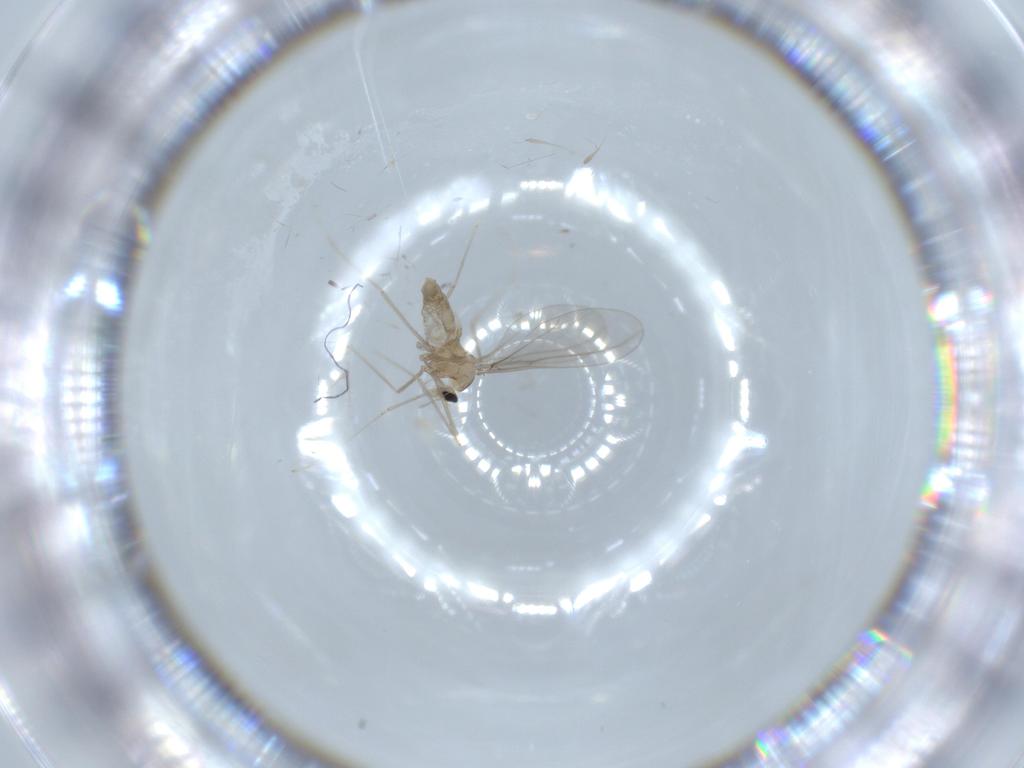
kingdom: Animalia
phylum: Arthropoda
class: Insecta
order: Diptera
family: Cecidomyiidae
